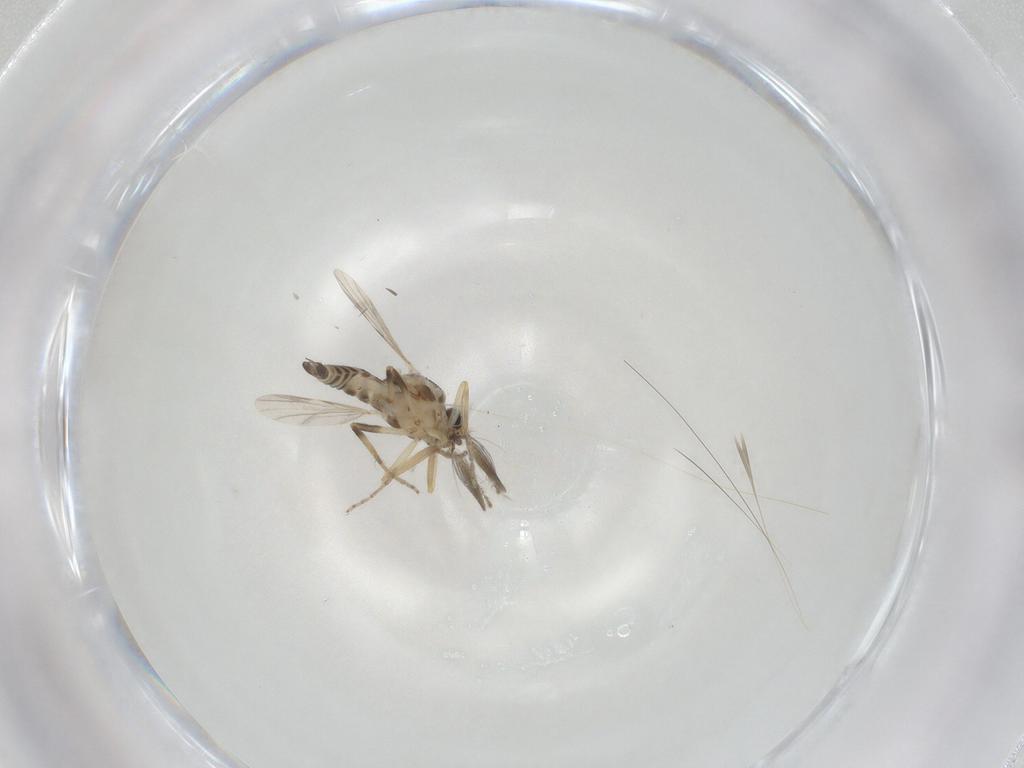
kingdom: Animalia
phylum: Arthropoda
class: Insecta
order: Diptera
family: Ceratopogonidae
